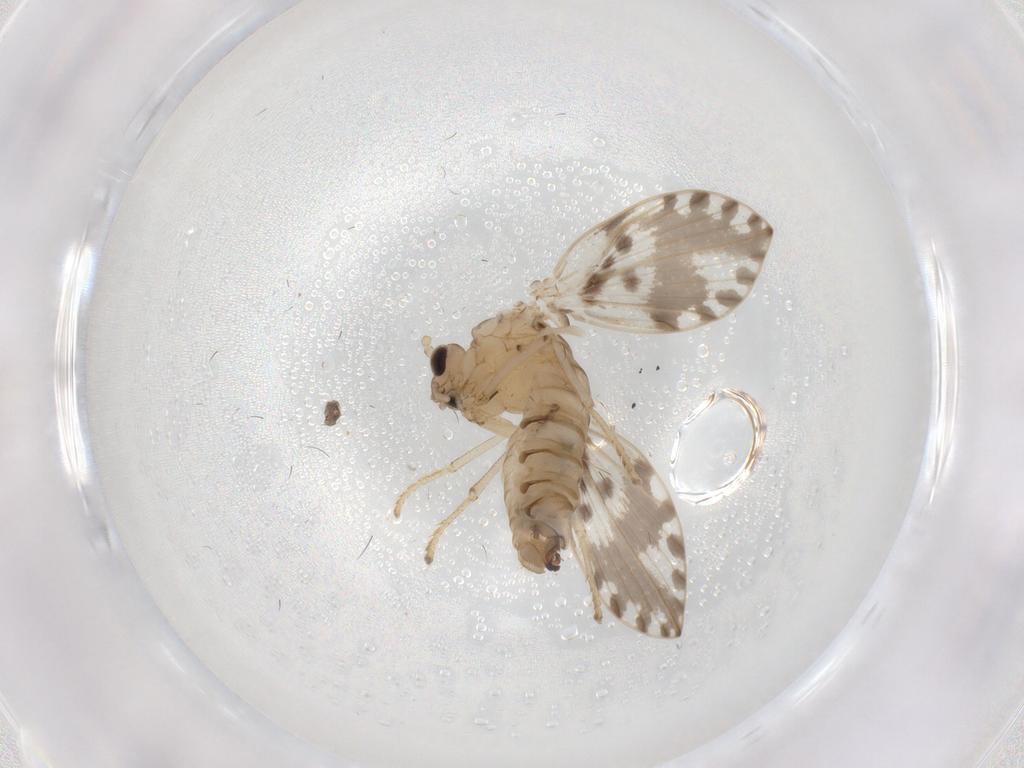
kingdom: Animalia
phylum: Arthropoda
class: Insecta
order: Diptera
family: Psychodidae
